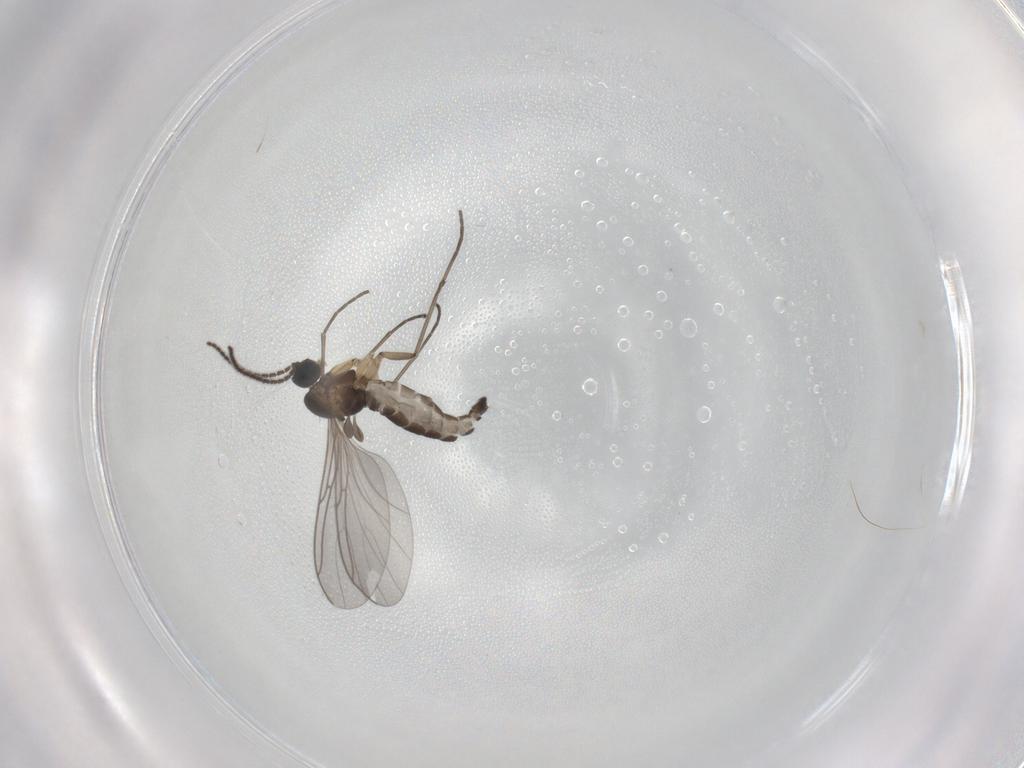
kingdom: Animalia
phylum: Arthropoda
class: Insecta
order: Diptera
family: Sciaridae
